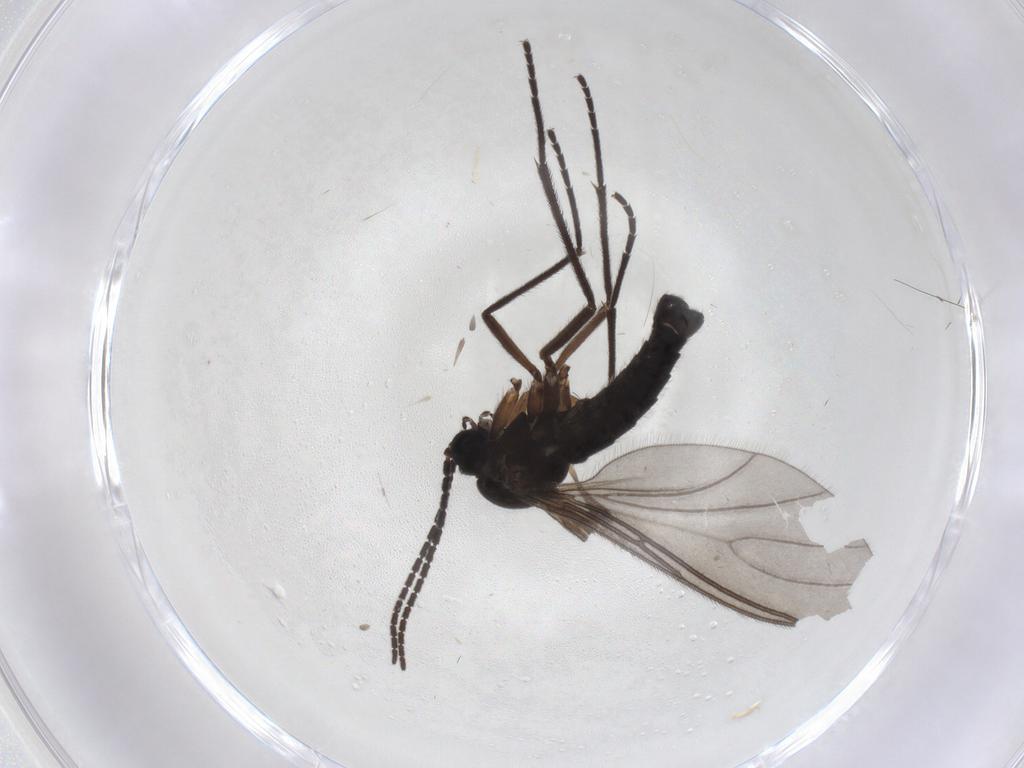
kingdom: Animalia
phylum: Arthropoda
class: Insecta
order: Diptera
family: Sciaridae
